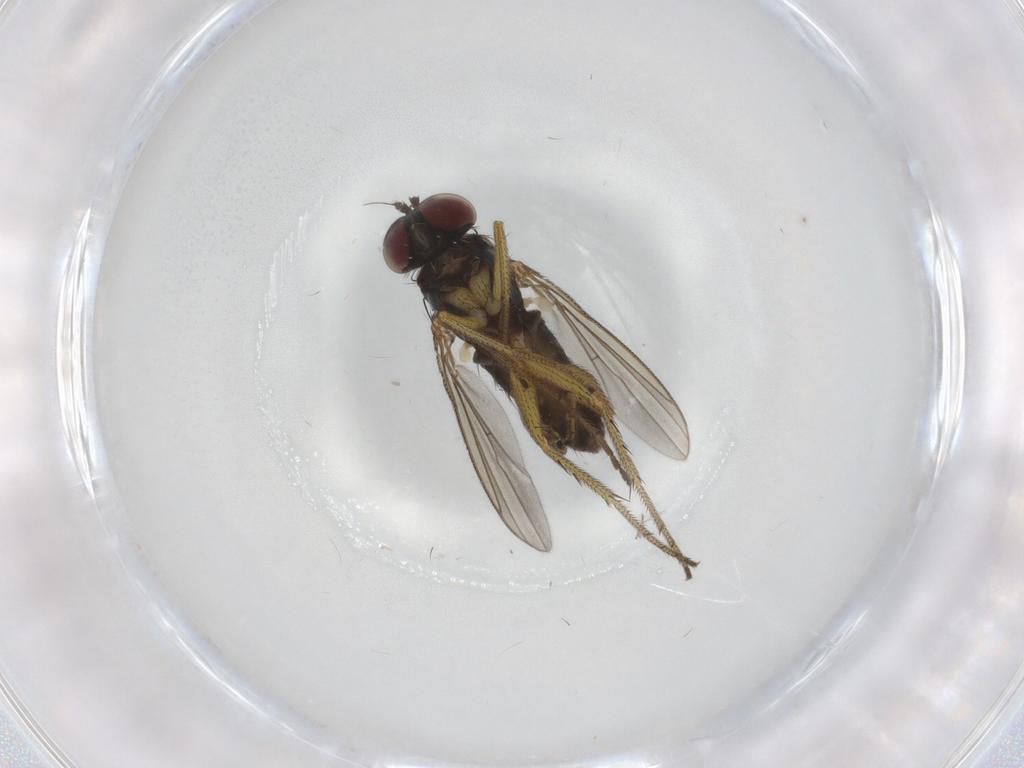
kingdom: Animalia
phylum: Arthropoda
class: Insecta
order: Diptera
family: Chironomidae
